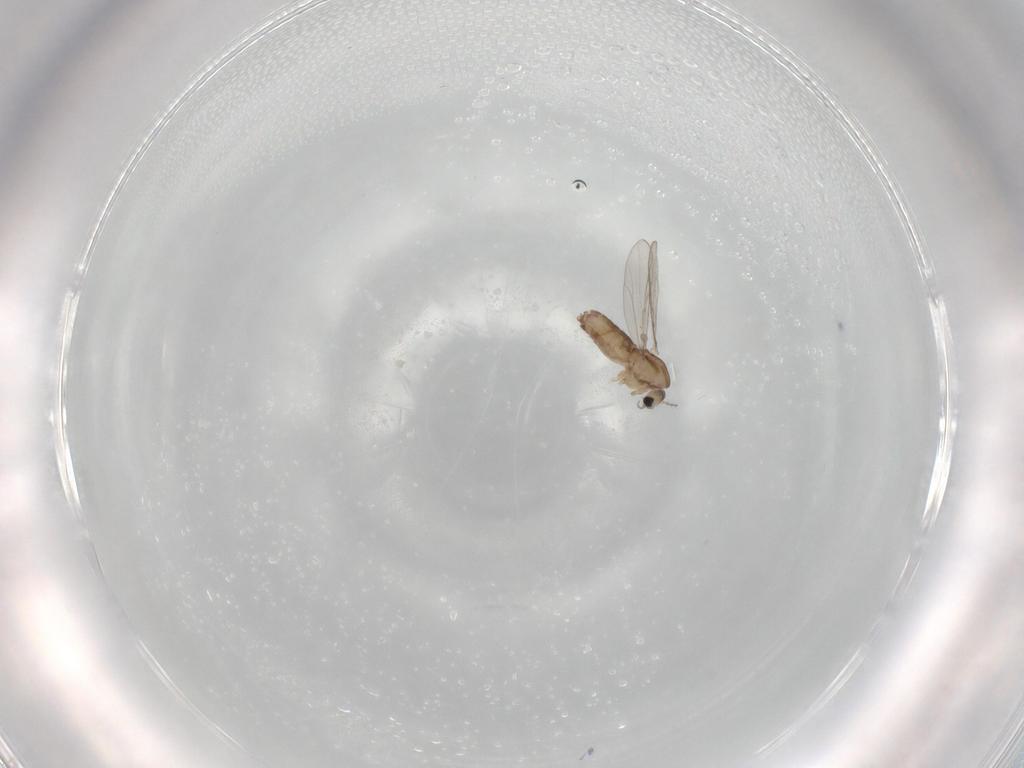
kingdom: Animalia
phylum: Arthropoda
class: Insecta
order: Diptera
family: Chironomidae
